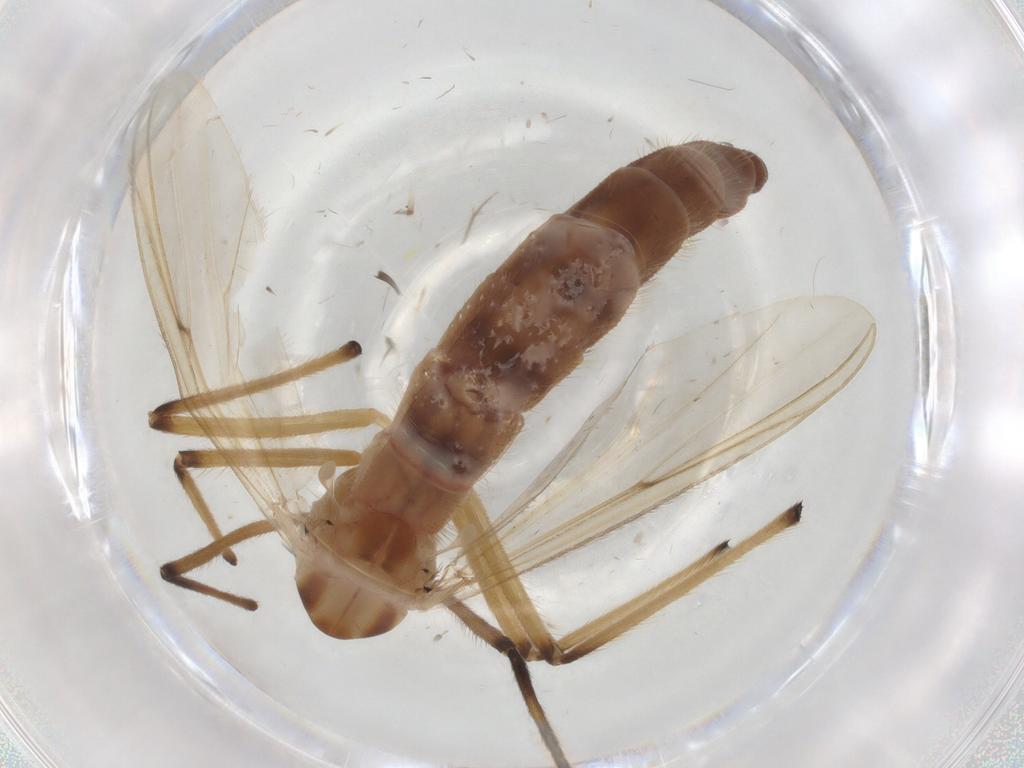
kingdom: Animalia
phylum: Arthropoda
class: Insecta
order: Diptera
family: Chironomidae
